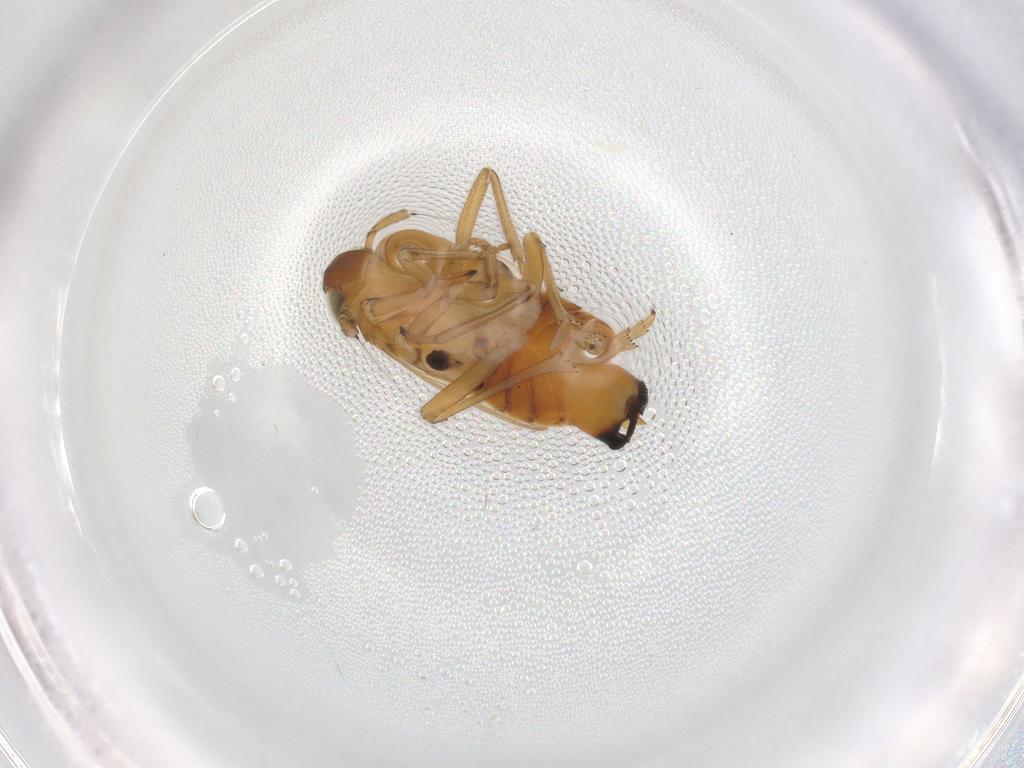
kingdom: Animalia
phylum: Arthropoda
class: Insecta
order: Hemiptera
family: Delphacidae
